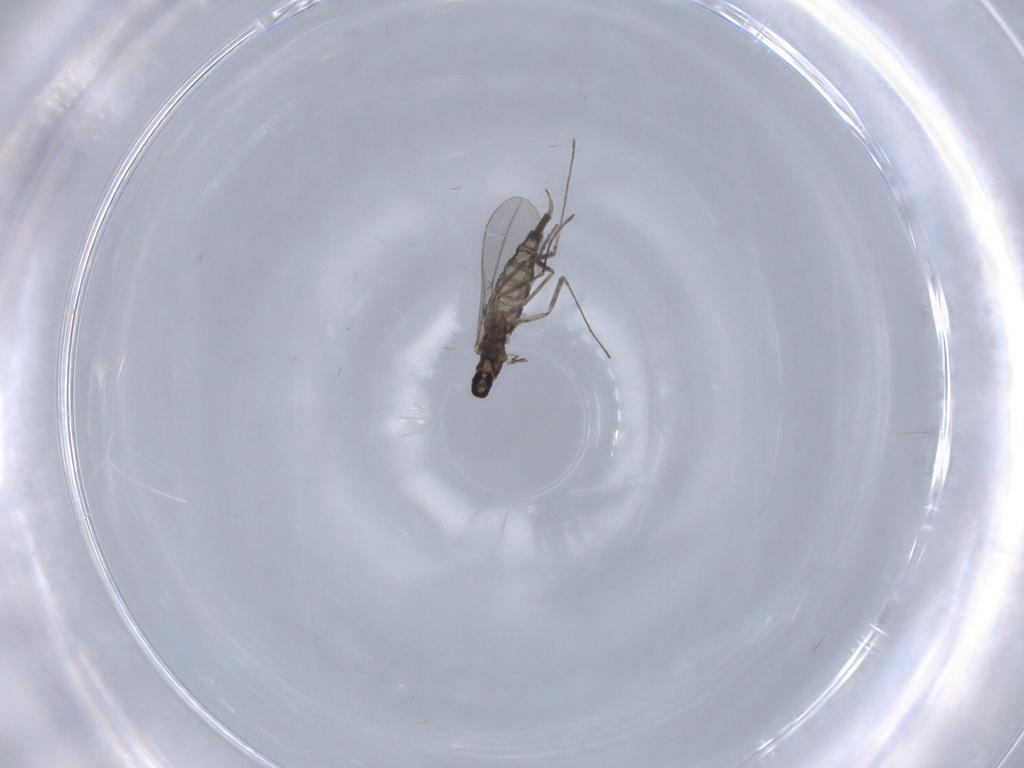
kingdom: Animalia
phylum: Arthropoda
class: Insecta
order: Diptera
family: Cecidomyiidae
